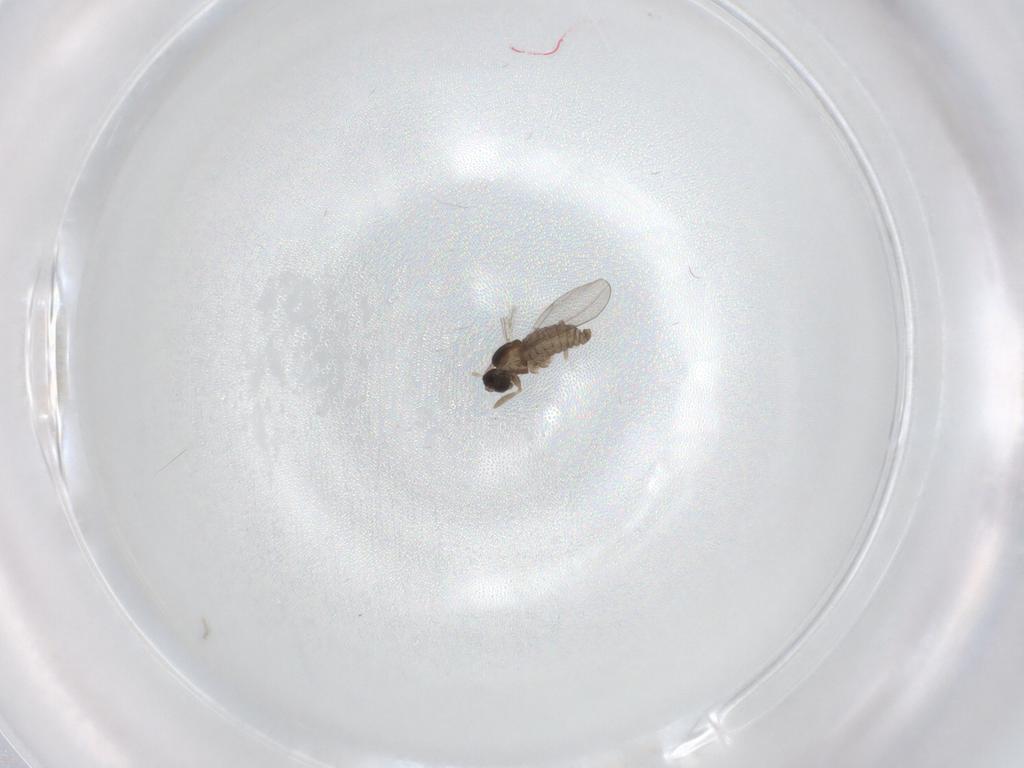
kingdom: Animalia
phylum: Arthropoda
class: Insecta
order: Diptera
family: Cecidomyiidae
